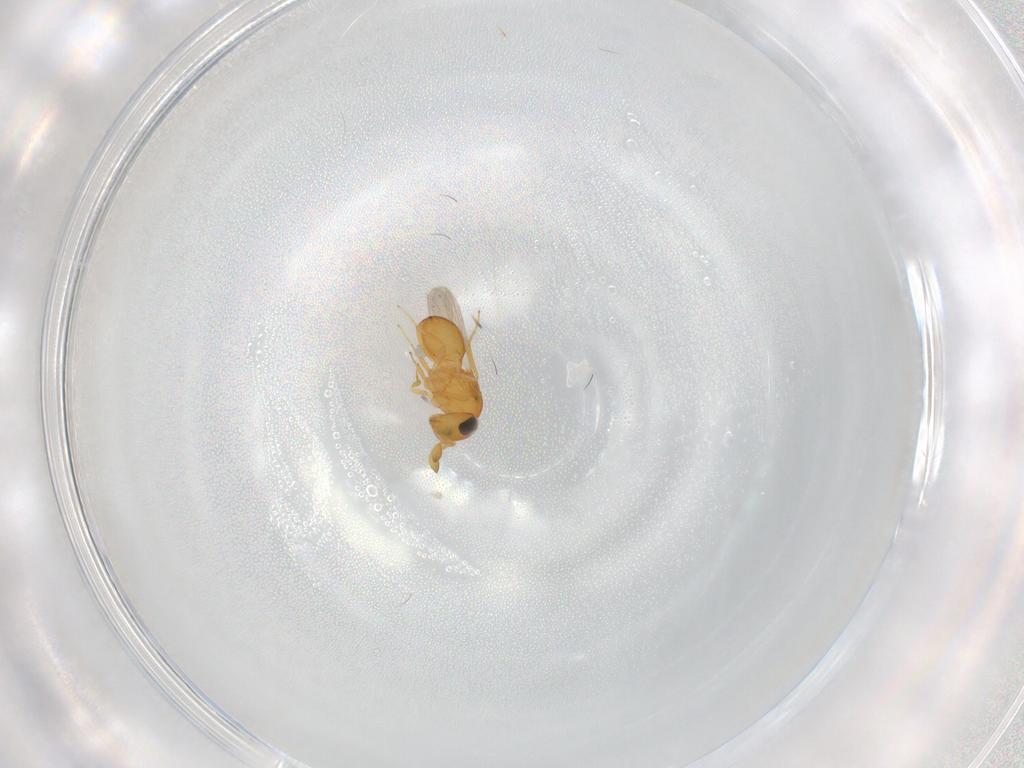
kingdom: Animalia
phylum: Arthropoda
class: Insecta
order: Hymenoptera
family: Scelionidae
